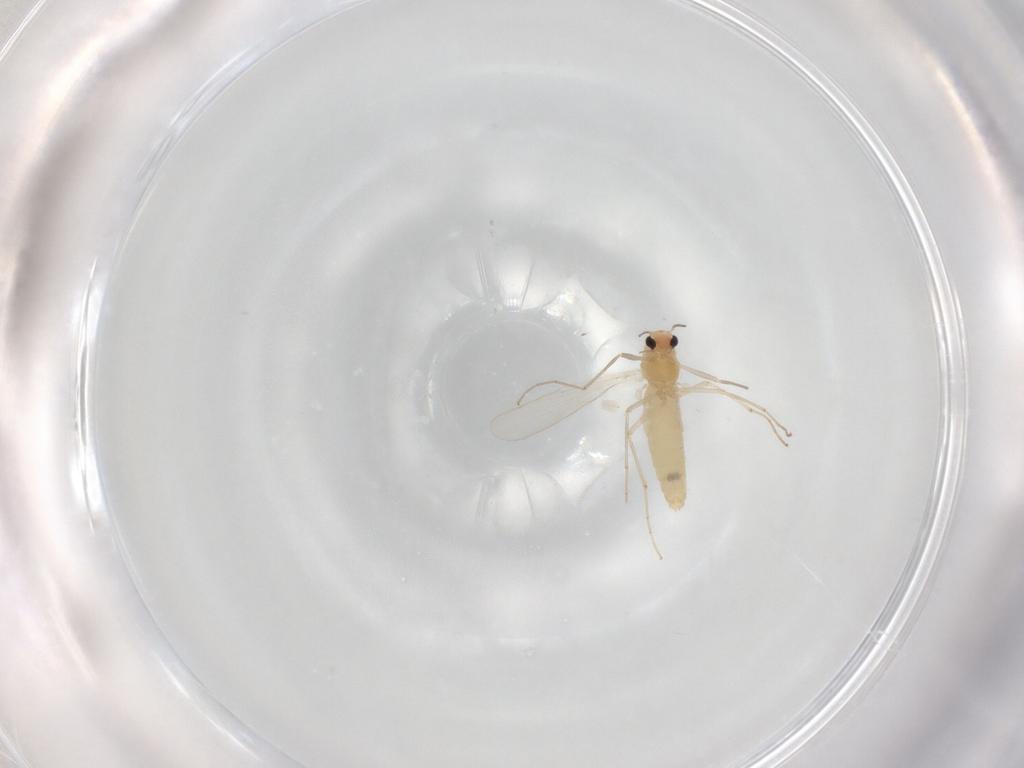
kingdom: Animalia
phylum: Arthropoda
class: Insecta
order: Diptera
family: Chironomidae
